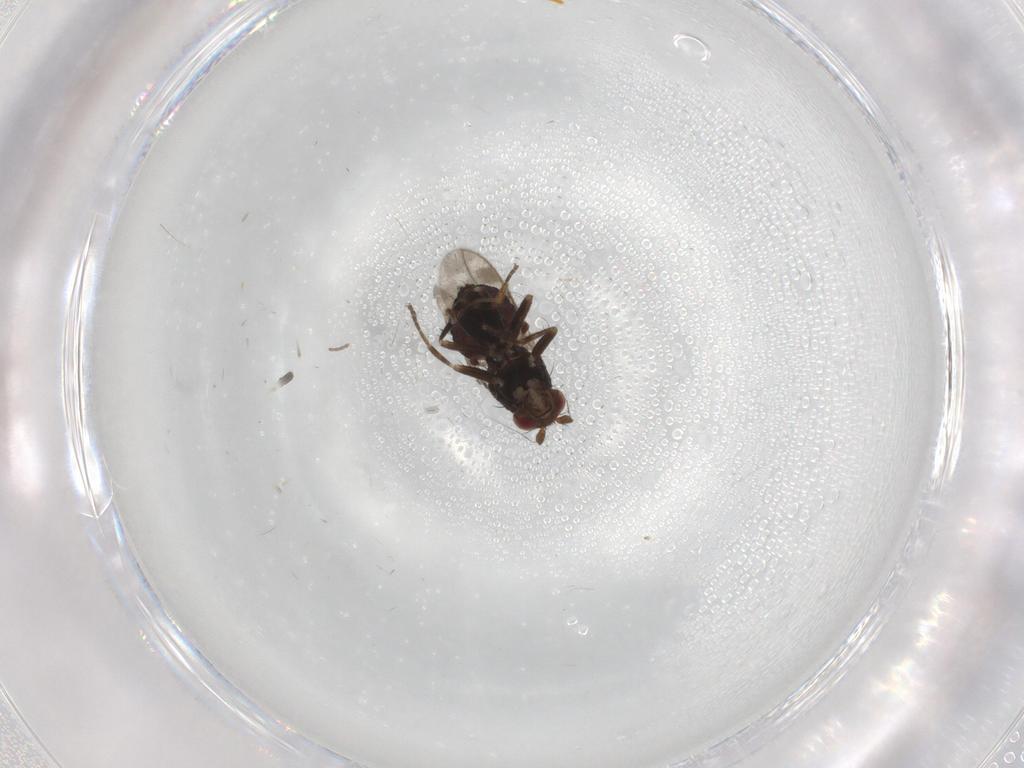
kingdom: Animalia
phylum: Arthropoda
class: Insecta
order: Diptera
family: Sphaeroceridae
